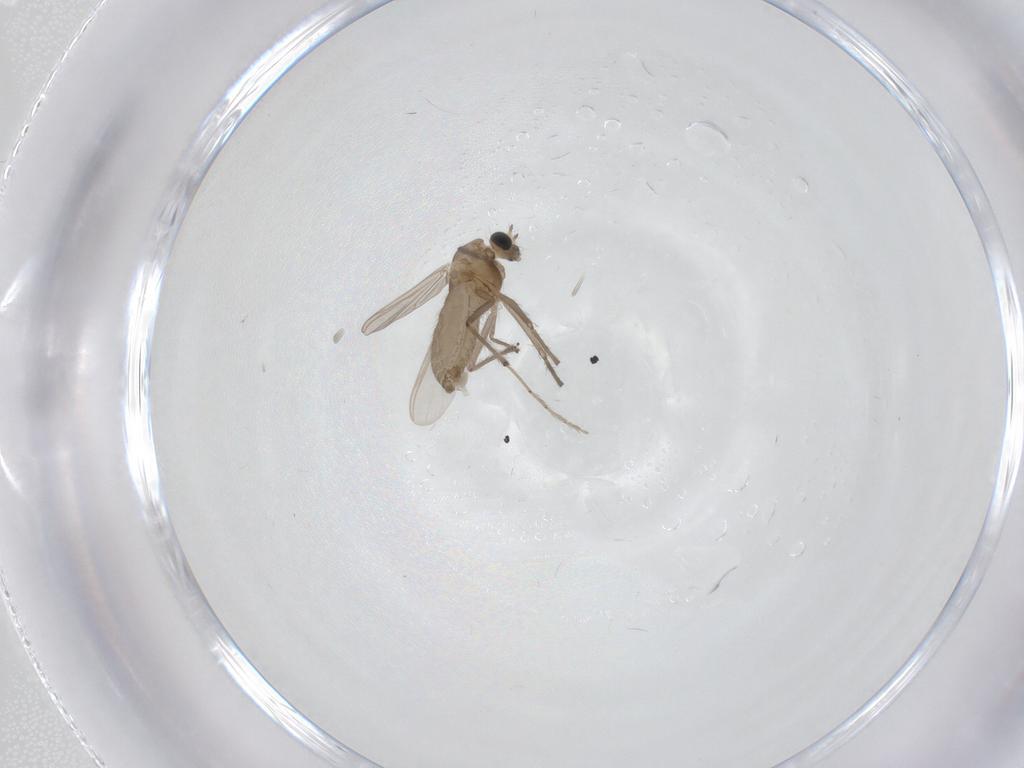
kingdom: Animalia
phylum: Arthropoda
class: Insecta
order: Diptera
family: Chironomidae
